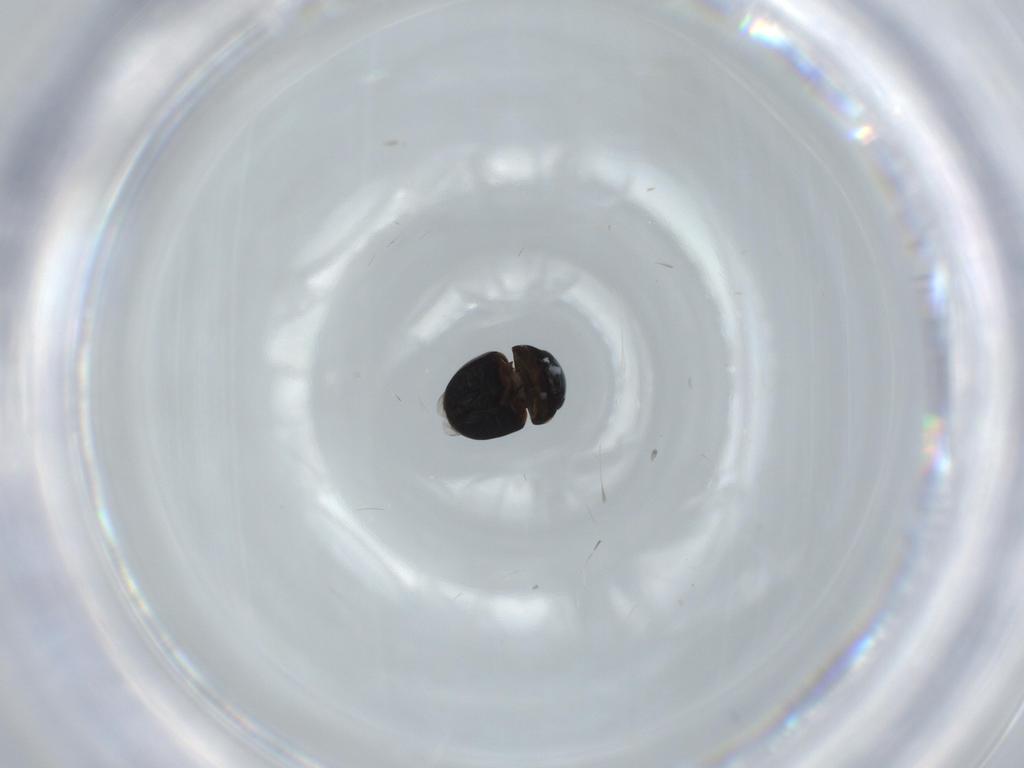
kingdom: Animalia
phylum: Arthropoda
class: Insecta
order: Coleoptera
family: Cybocephalidae
